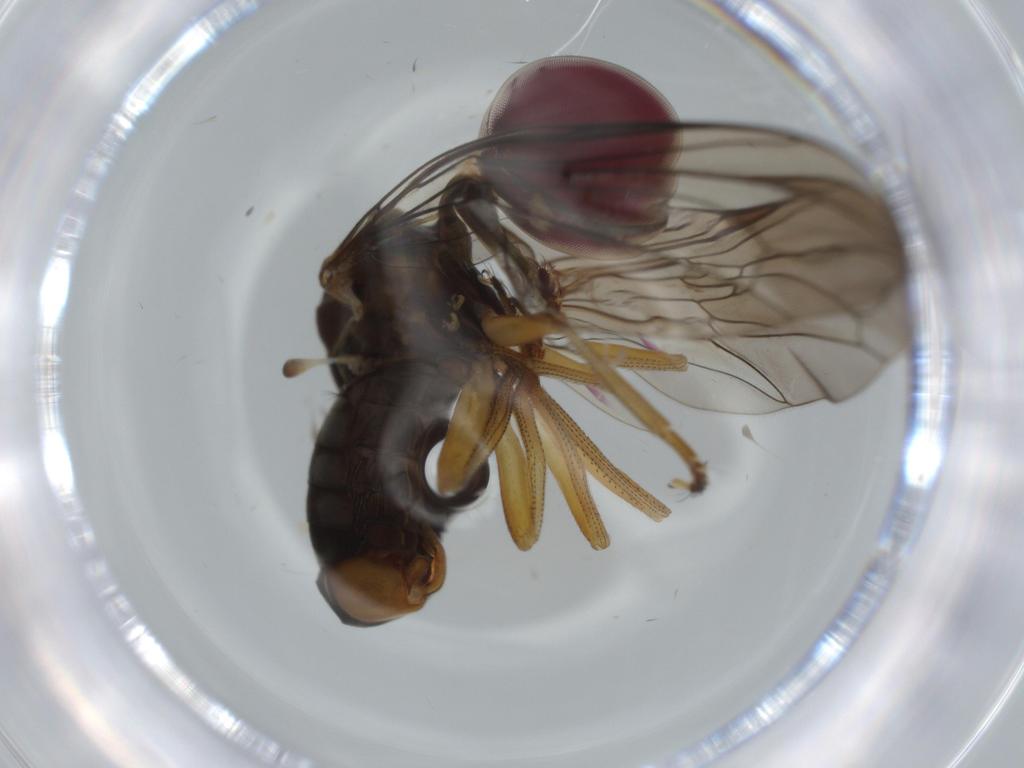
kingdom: Animalia
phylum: Arthropoda
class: Insecta
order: Diptera
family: Pipunculidae
